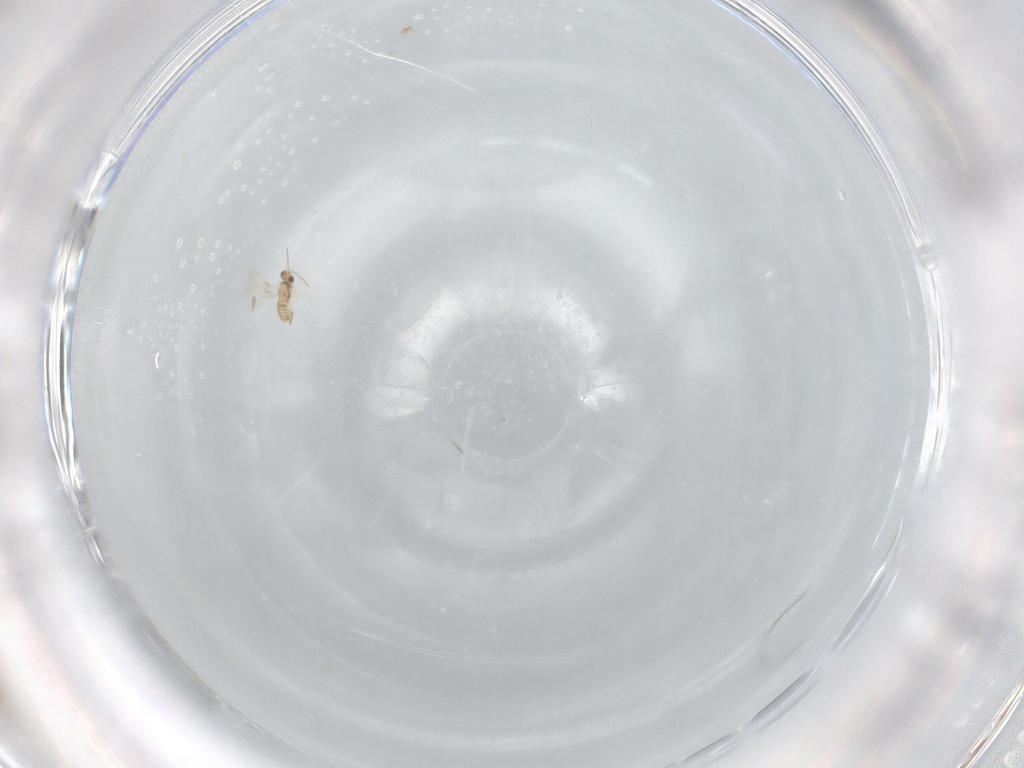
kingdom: Animalia
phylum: Arthropoda
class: Insecta
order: Hymenoptera
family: Aphelinidae
